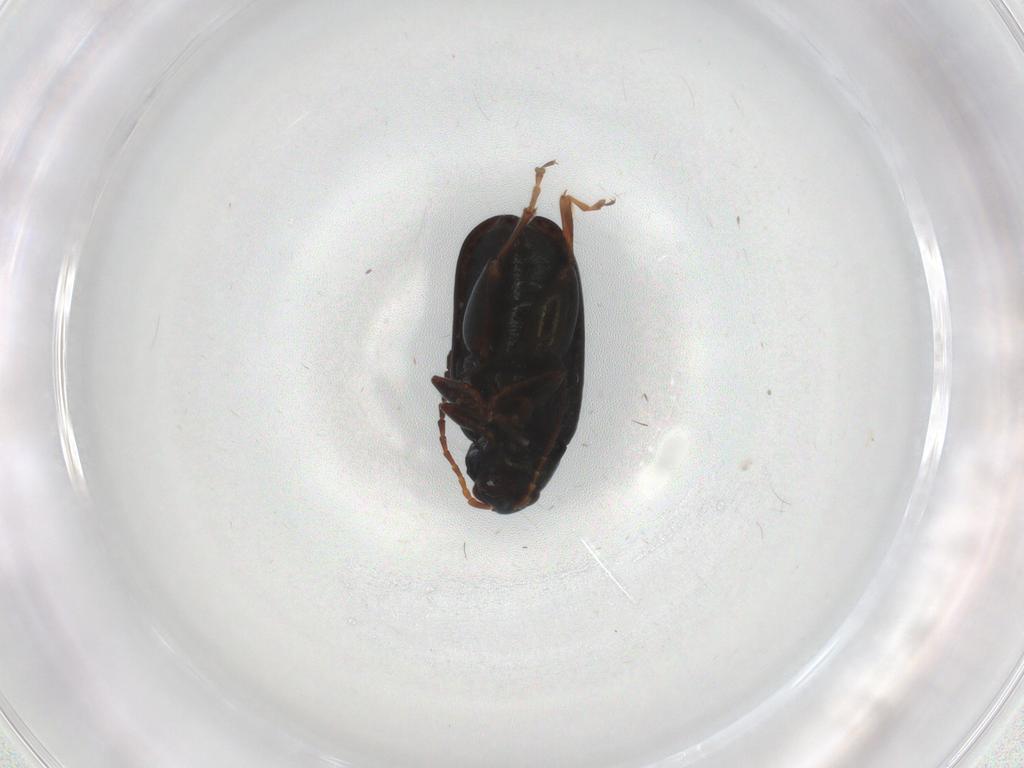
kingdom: Animalia
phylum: Arthropoda
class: Insecta
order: Coleoptera
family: Chrysomelidae
